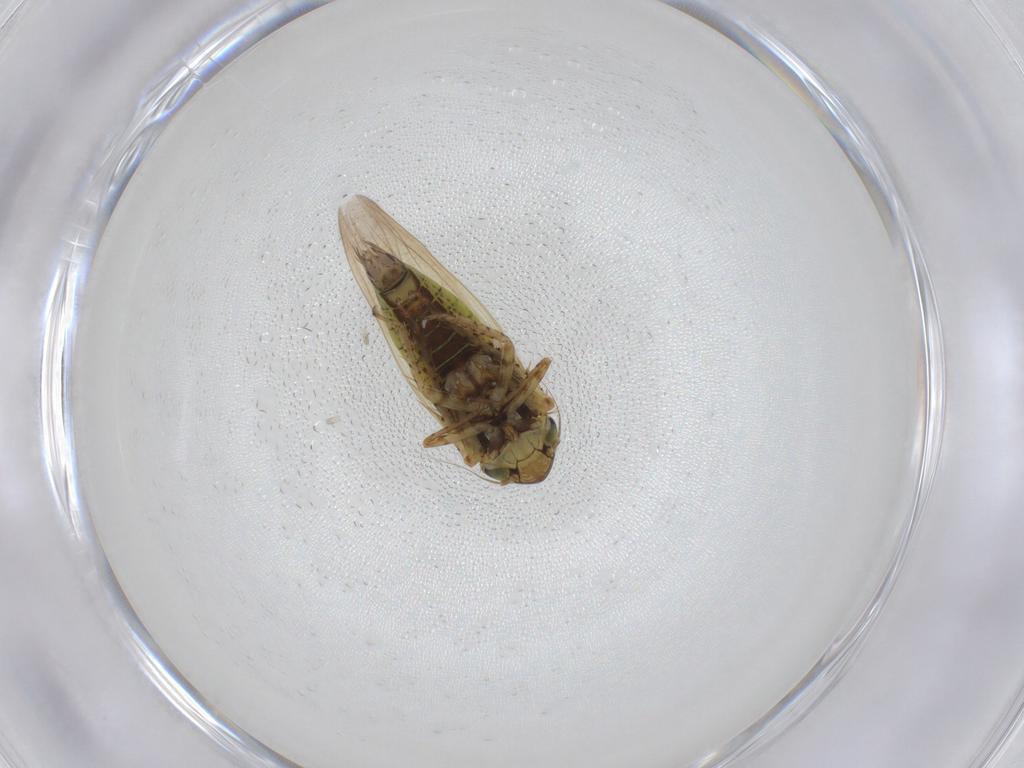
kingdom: Animalia
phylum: Arthropoda
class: Insecta
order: Hemiptera
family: Cicadellidae
